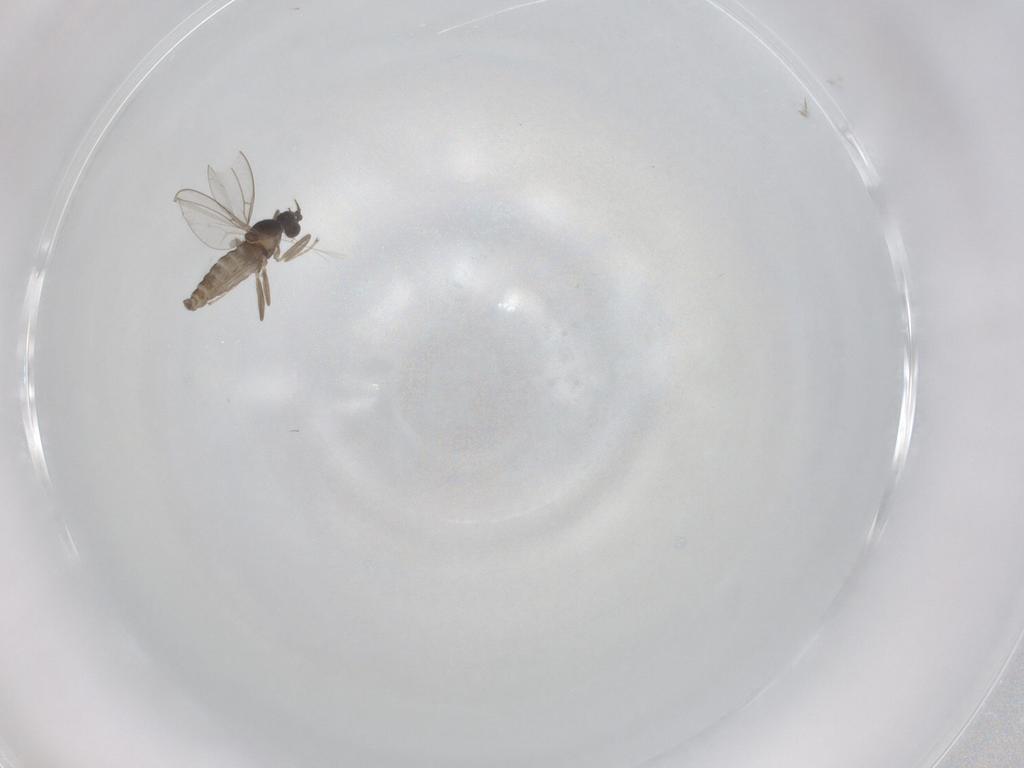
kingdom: Animalia
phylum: Arthropoda
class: Insecta
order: Diptera
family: Cecidomyiidae
